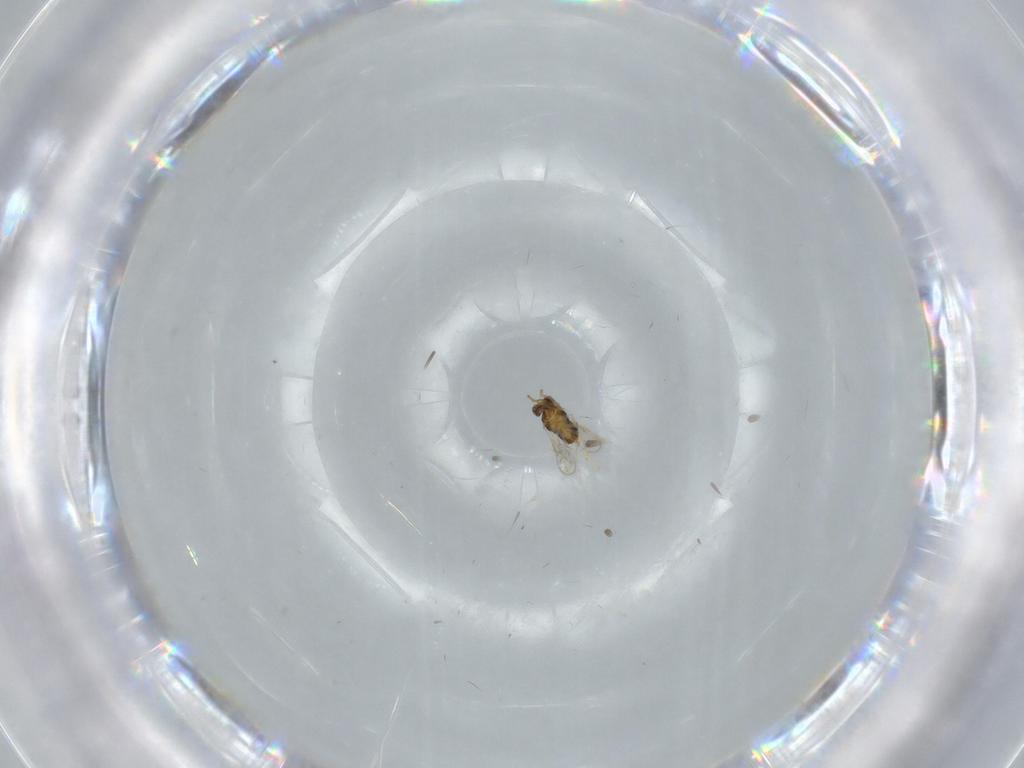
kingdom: Animalia
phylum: Arthropoda
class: Insecta
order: Hymenoptera
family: Aphelinidae
